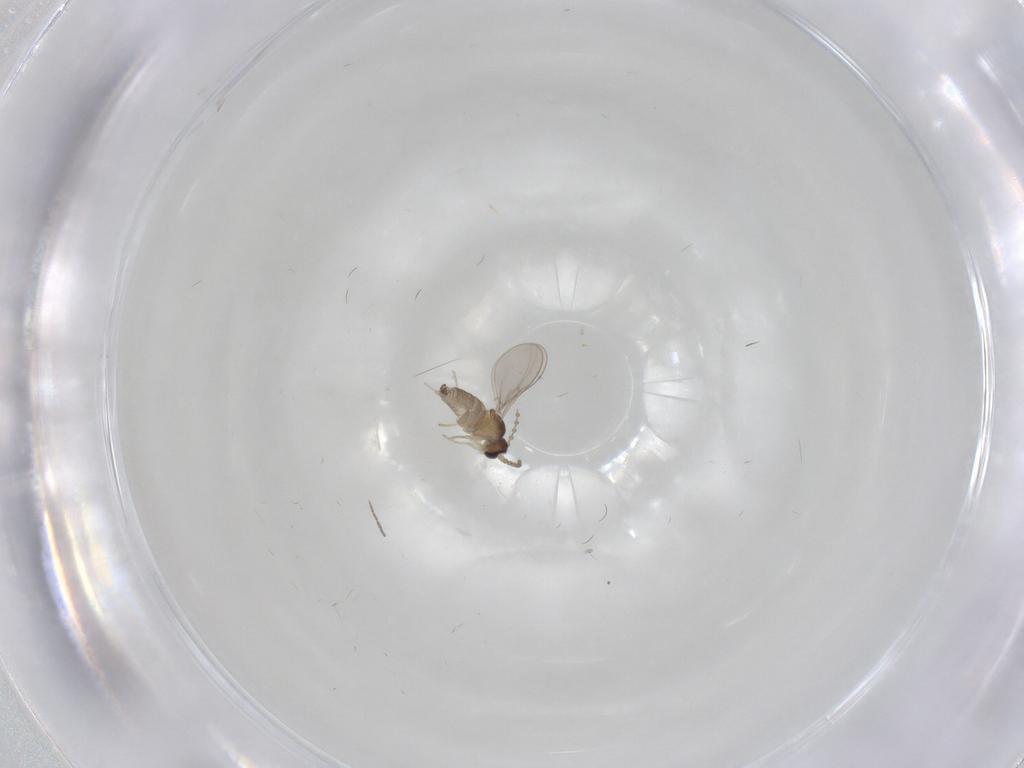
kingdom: Animalia
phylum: Arthropoda
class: Insecta
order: Diptera
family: Cecidomyiidae
